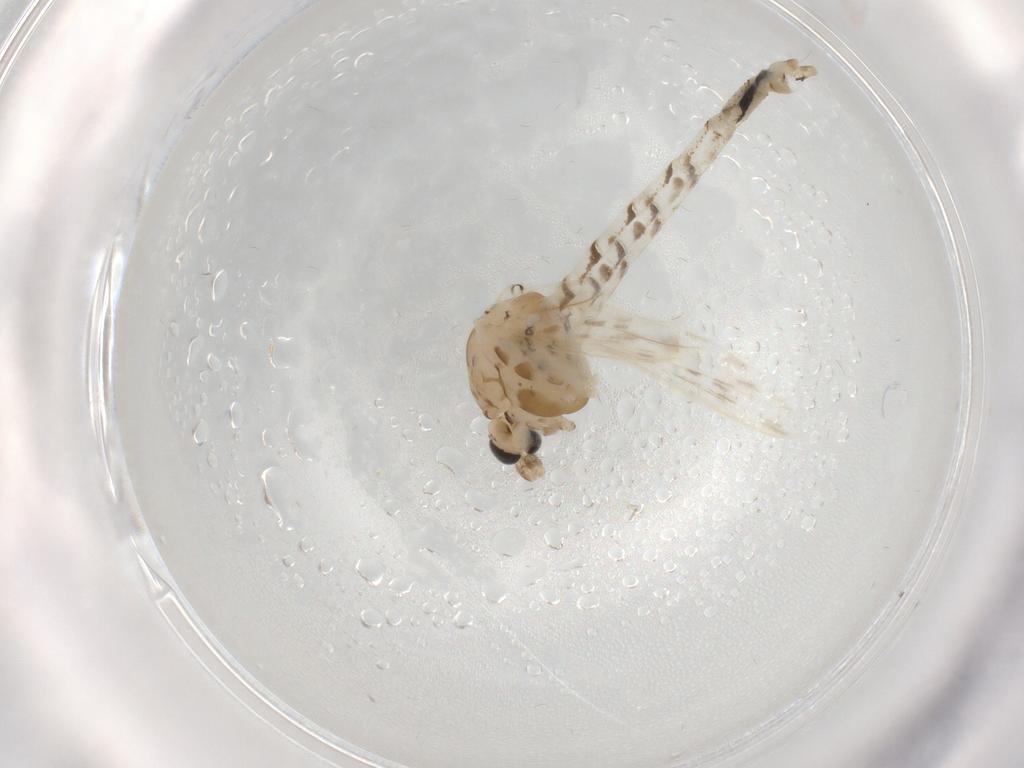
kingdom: Animalia
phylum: Arthropoda
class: Insecta
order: Diptera
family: Chaoboridae
